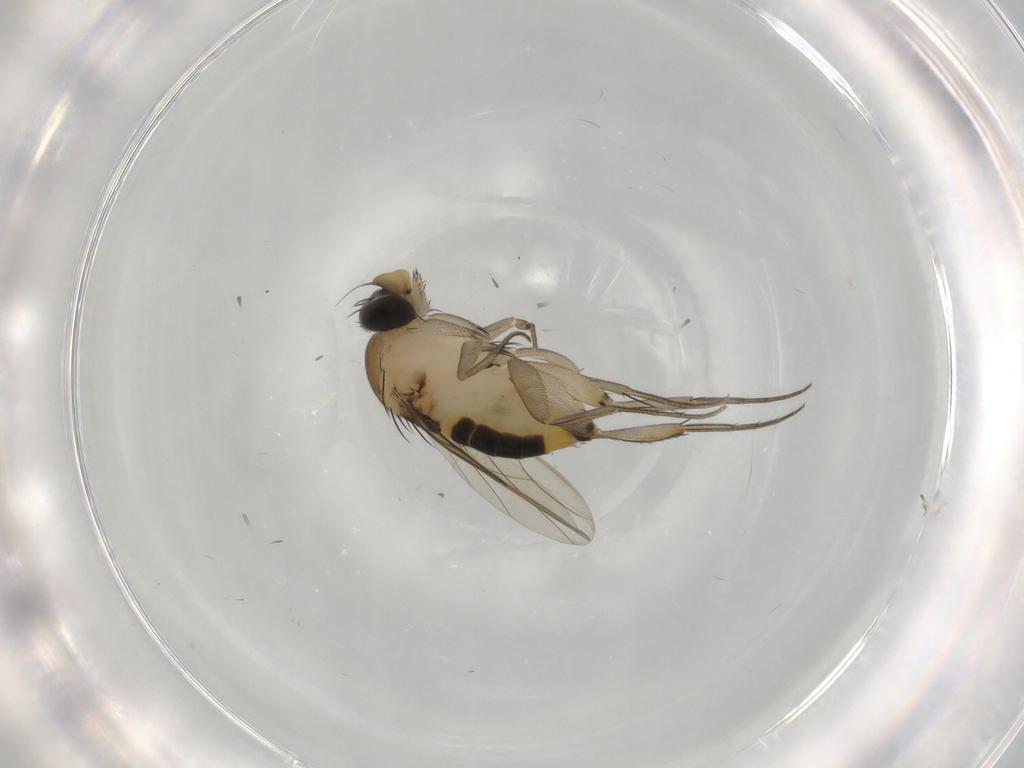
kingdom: Animalia
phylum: Arthropoda
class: Insecta
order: Diptera
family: Phoridae
